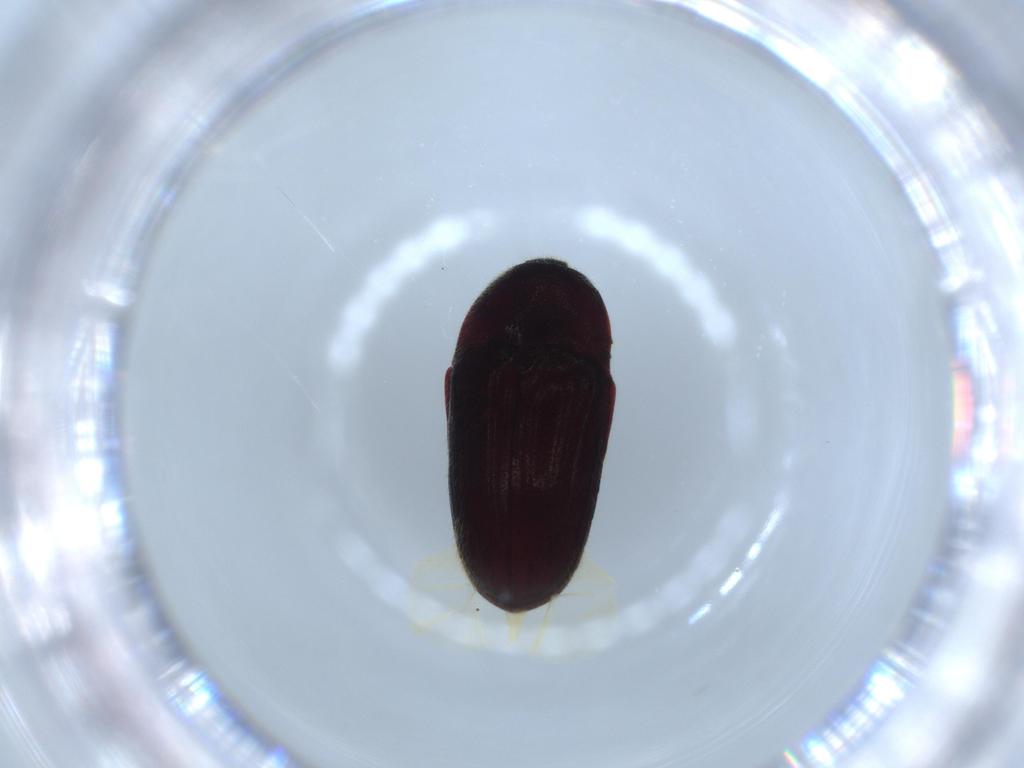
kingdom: Animalia
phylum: Arthropoda
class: Insecta
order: Coleoptera
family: Throscidae
